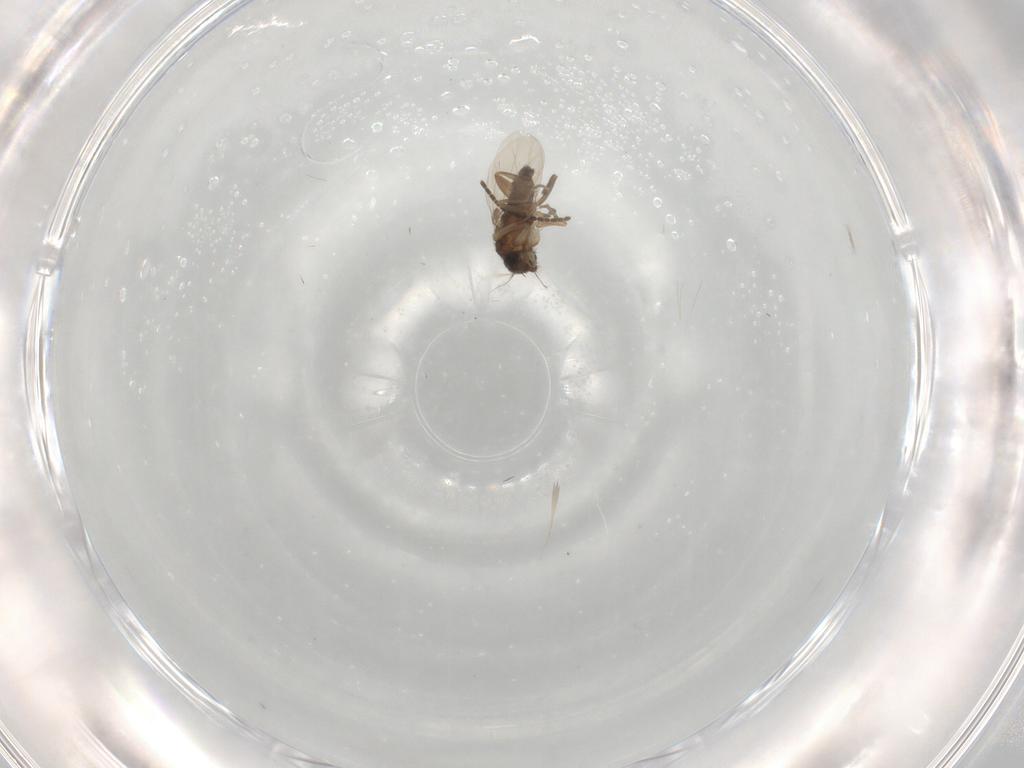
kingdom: Animalia
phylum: Arthropoda
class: Insecta
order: Diptera
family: Phoridae
